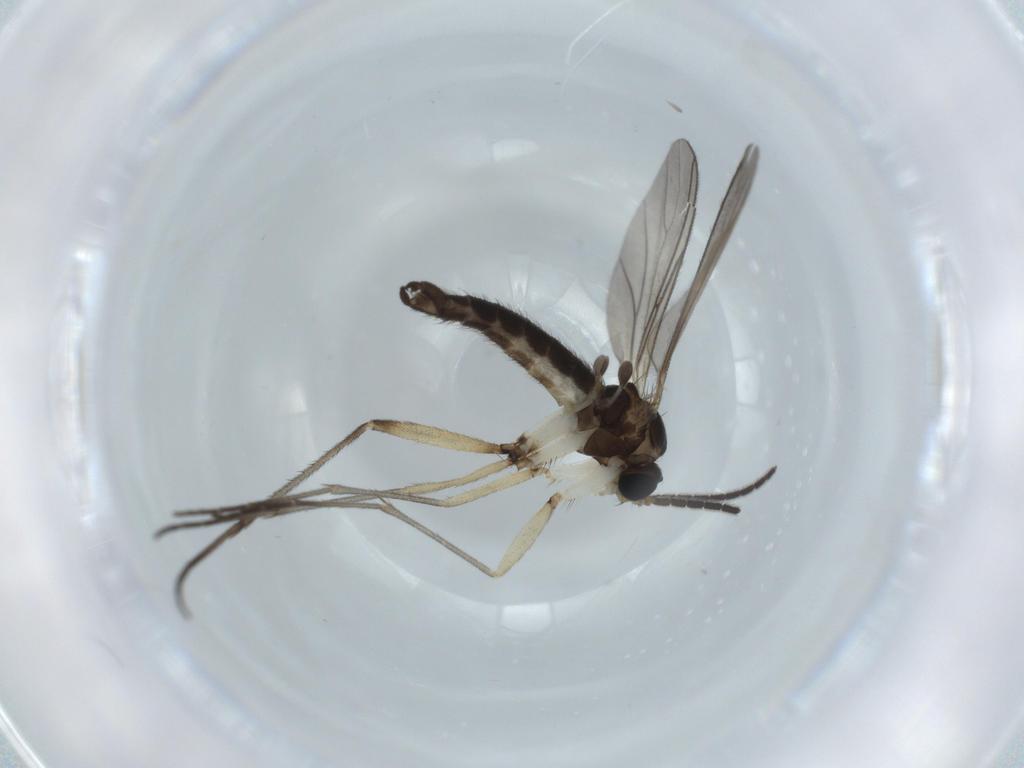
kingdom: Animalia
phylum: Arthropoda
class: Insecta
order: Diptera
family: Sciaridae
